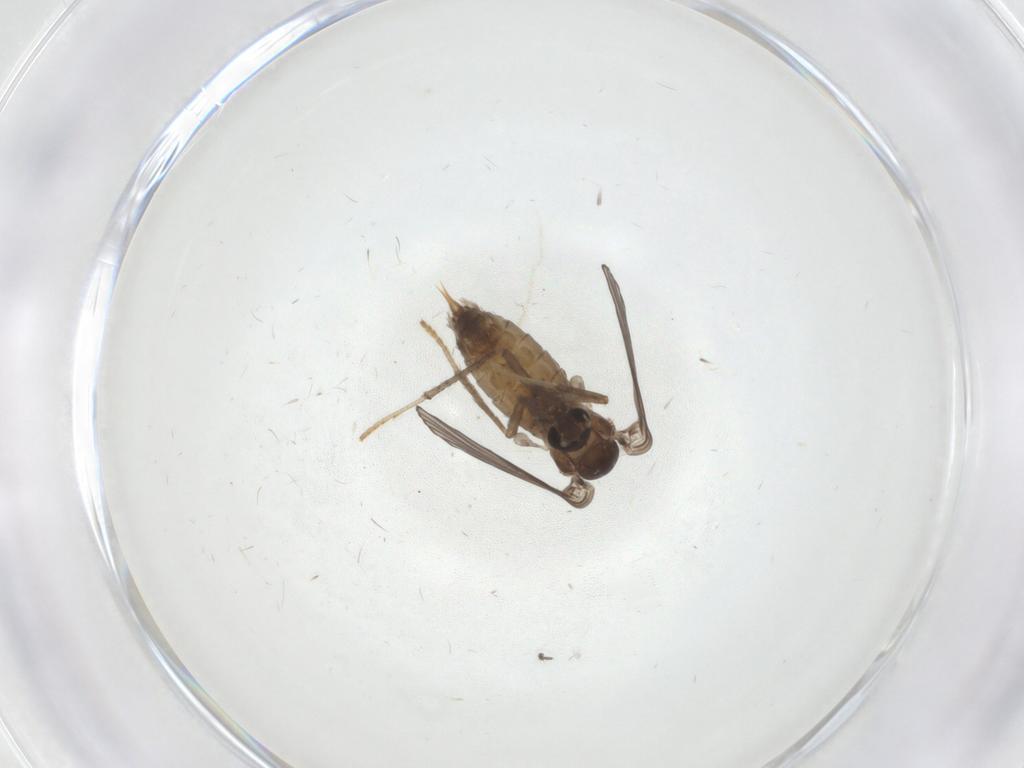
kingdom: Animalia
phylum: Arthropoda
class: Insecta
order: Diptera
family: Psychodidae
